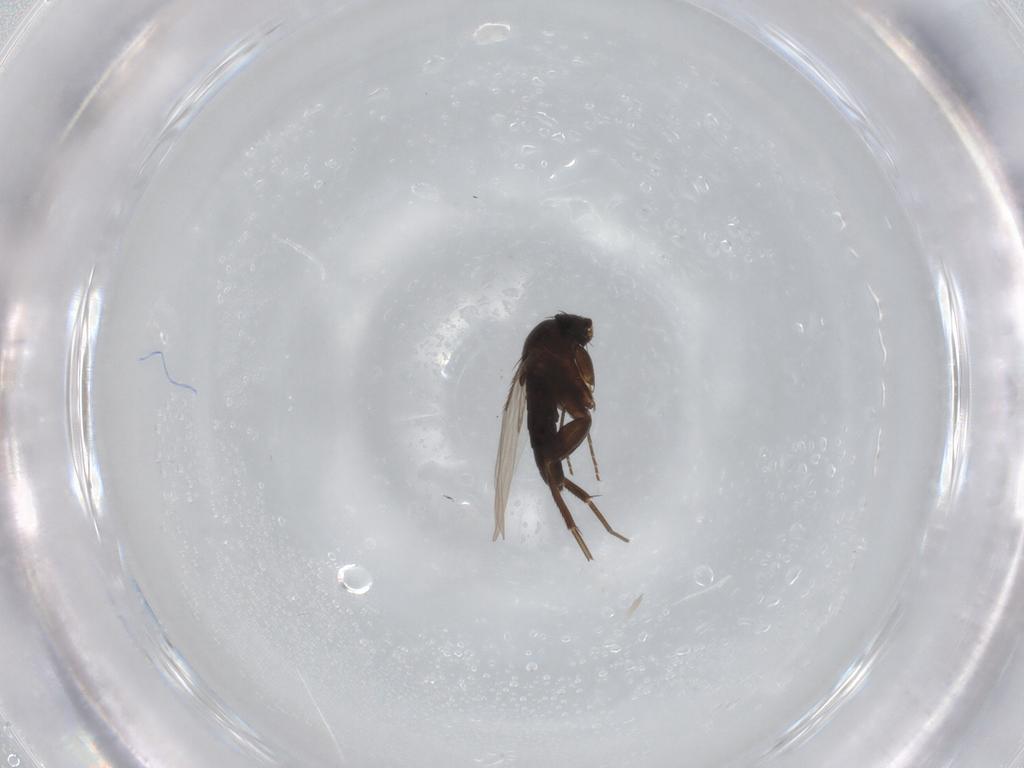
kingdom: Animalia
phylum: Arthropoda
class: Insecta
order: Diptera
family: Phoridae
